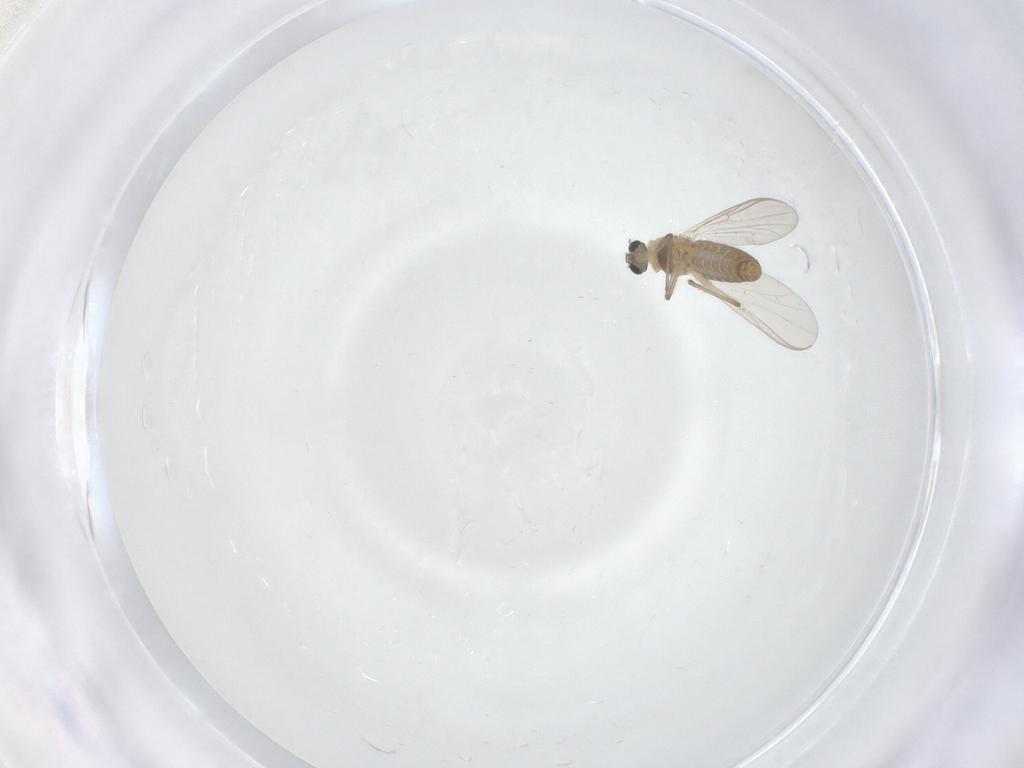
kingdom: Animalia
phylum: Arthropoda
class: Insecta
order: Diptera
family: Chironomidae
